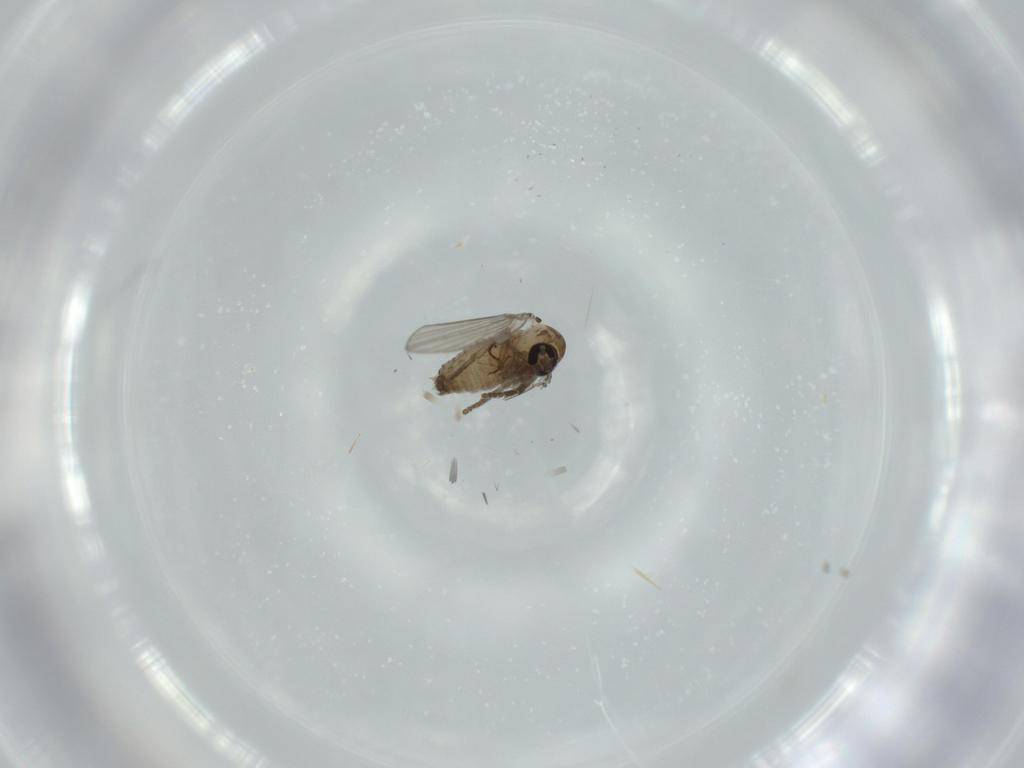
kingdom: Animalia
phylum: Arthropoda
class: Insecta
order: Diptera
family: Psychodidae
